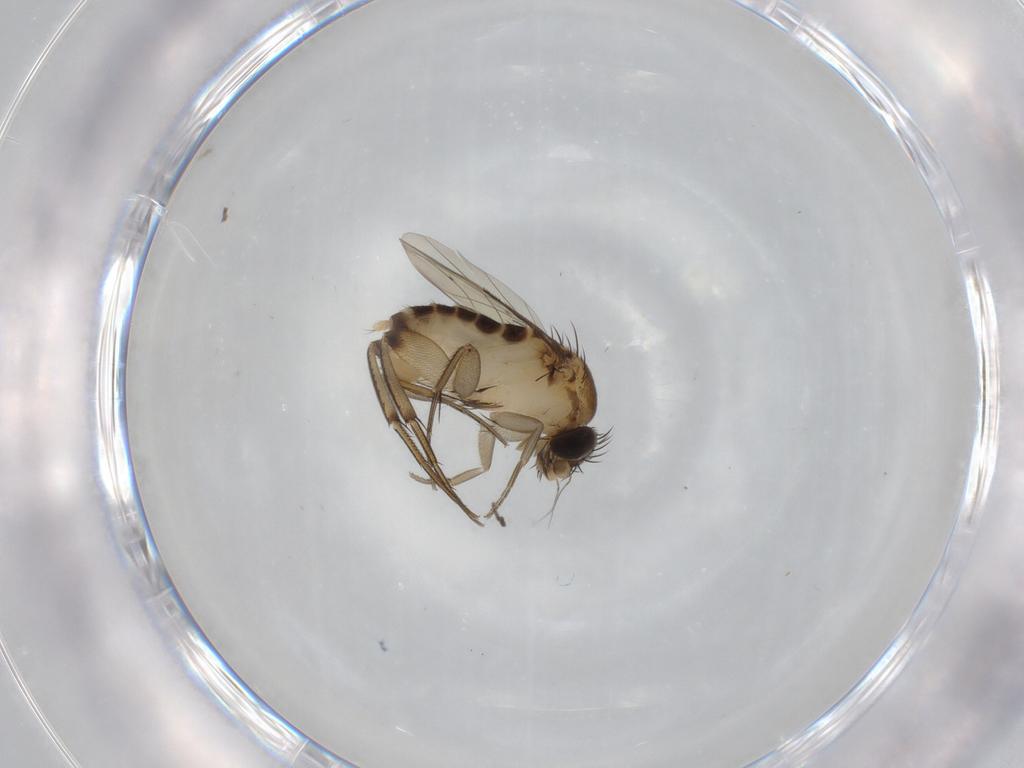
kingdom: Animalia
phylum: Arthropoda
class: Insecta
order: Diptera
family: Phoridae
